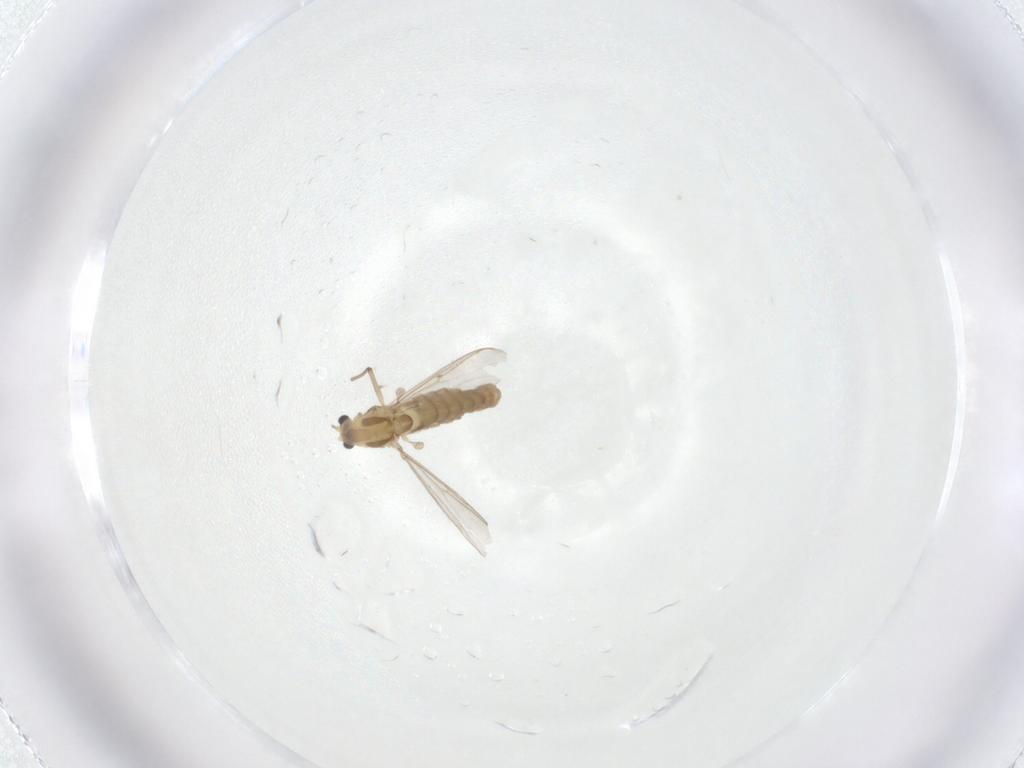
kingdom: Animalia
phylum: Arthropoda
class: Insecta
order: Diptera
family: Chironomidae
